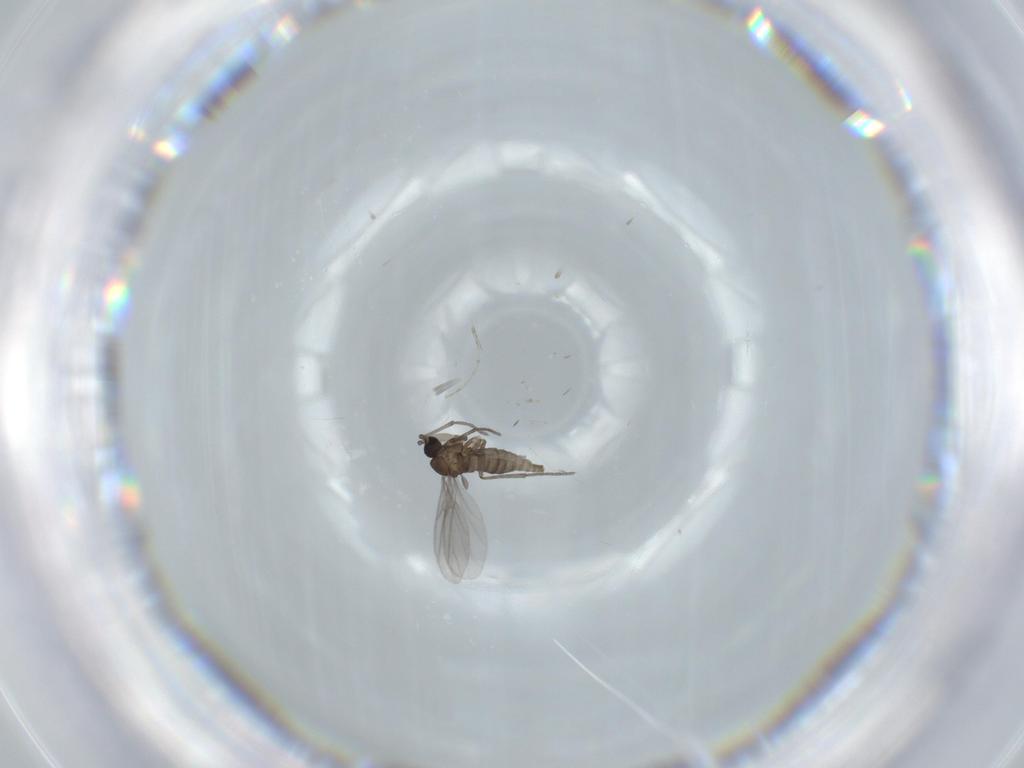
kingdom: Animalia
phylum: Arthropoda
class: Insecta
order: Diptera
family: Sciaridae
